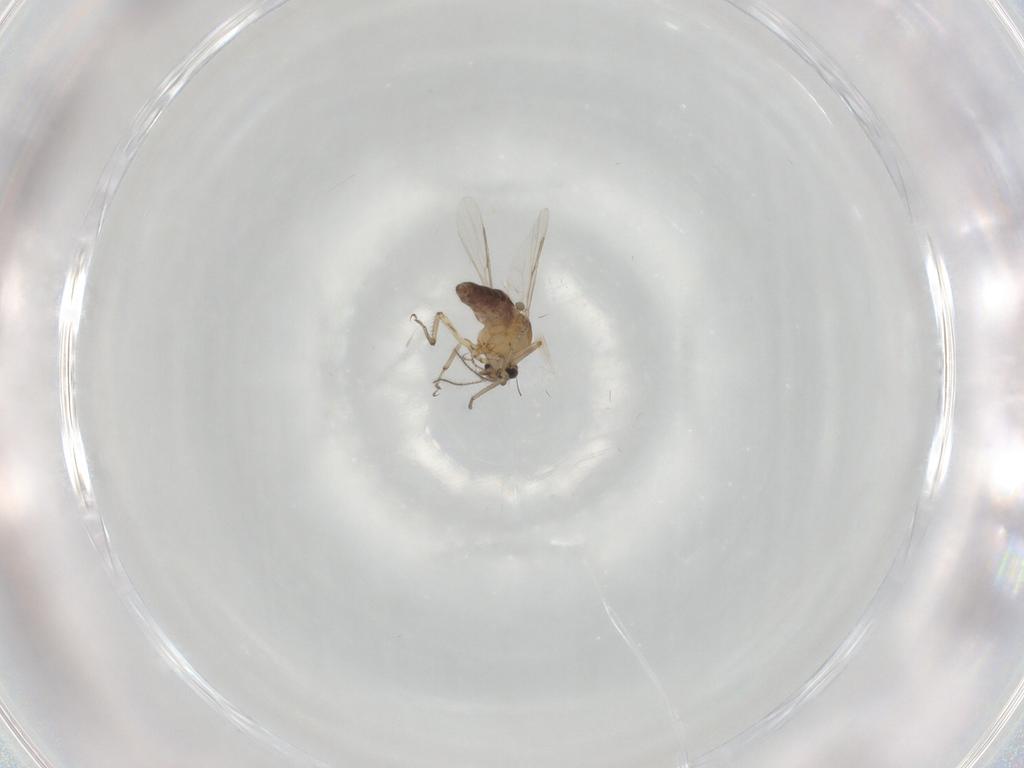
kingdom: Animalia
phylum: Arthropoda
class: Insecta
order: Diptera
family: Ceratopogonidae
